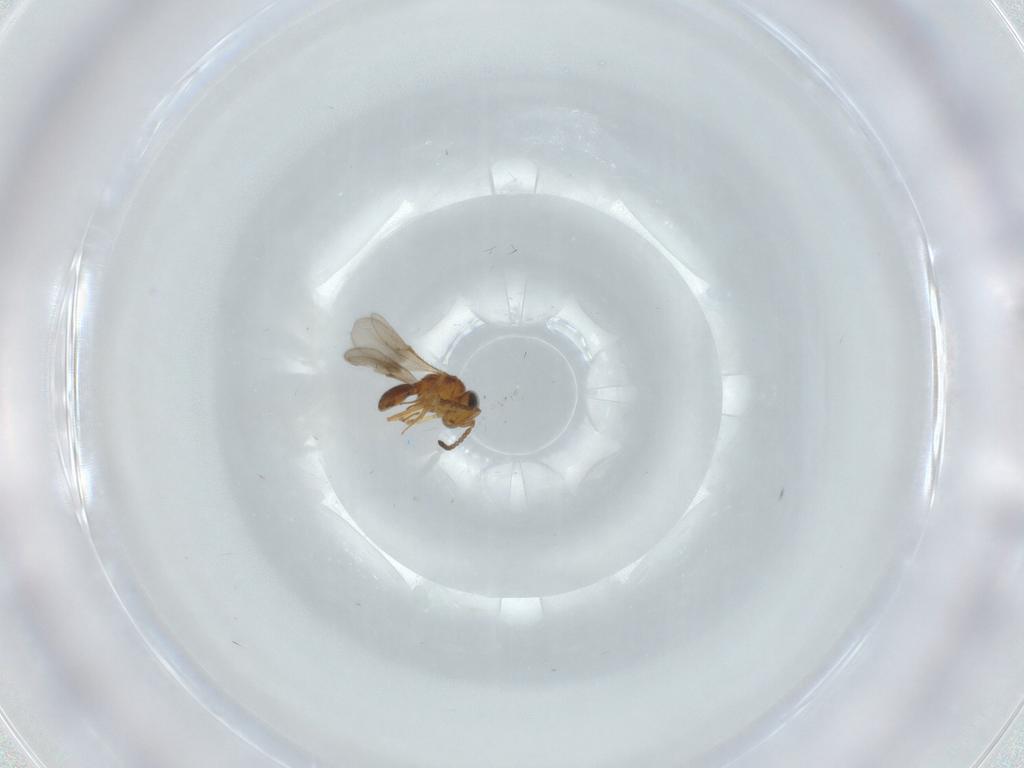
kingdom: Animalia
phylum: Arthropoda
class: Insecta
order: Hymenoptera
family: Scelionidae
